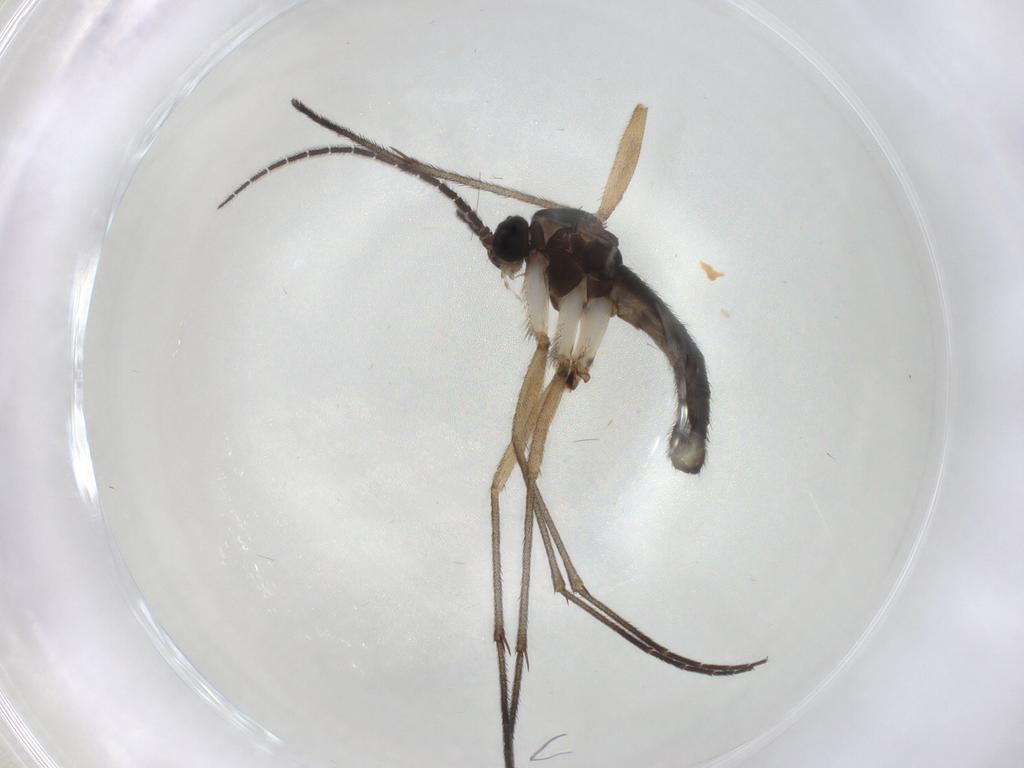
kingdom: Animalia
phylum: Arthropoda
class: Insecta
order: Diptera
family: Sciaridae
